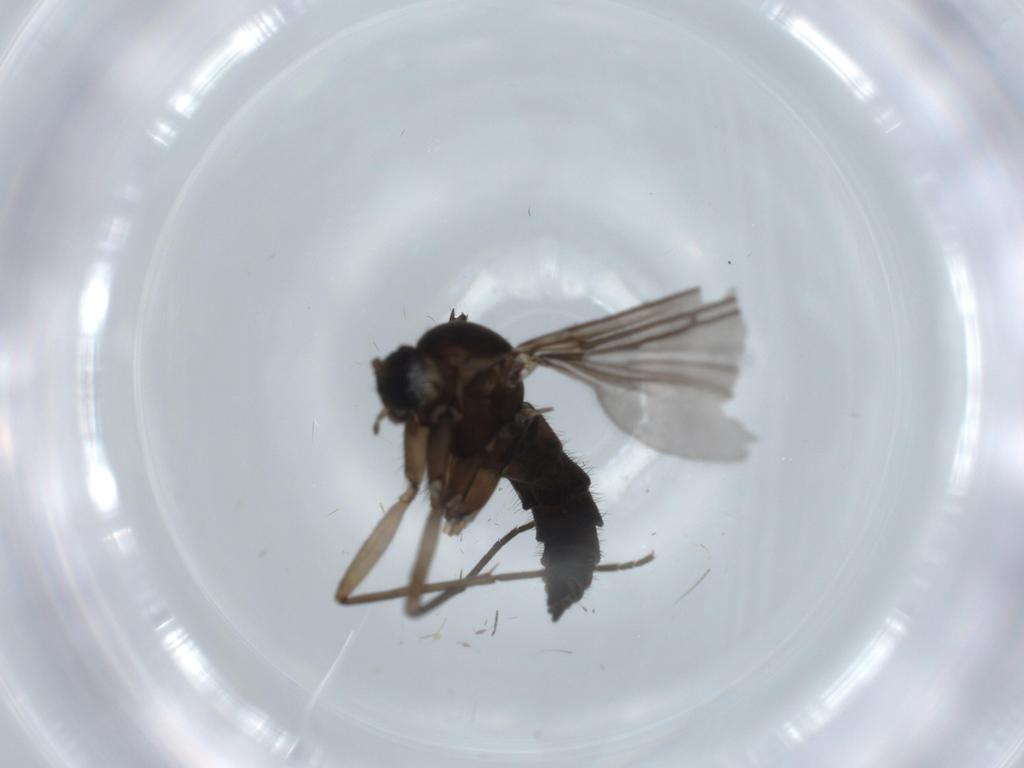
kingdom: Animalia
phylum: Arthropoda
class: Insecta
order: Diptera
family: Sciaridae
